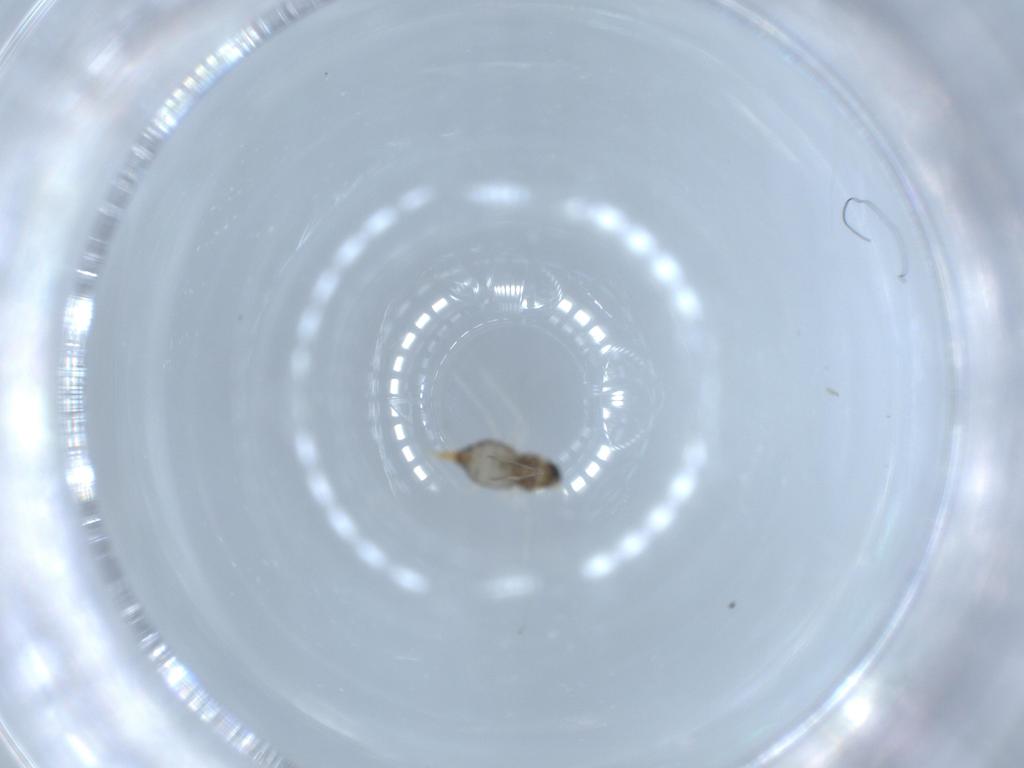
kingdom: Animalia
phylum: Arthropoda
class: Insecta
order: Diptera
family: Cecidomyiidae
